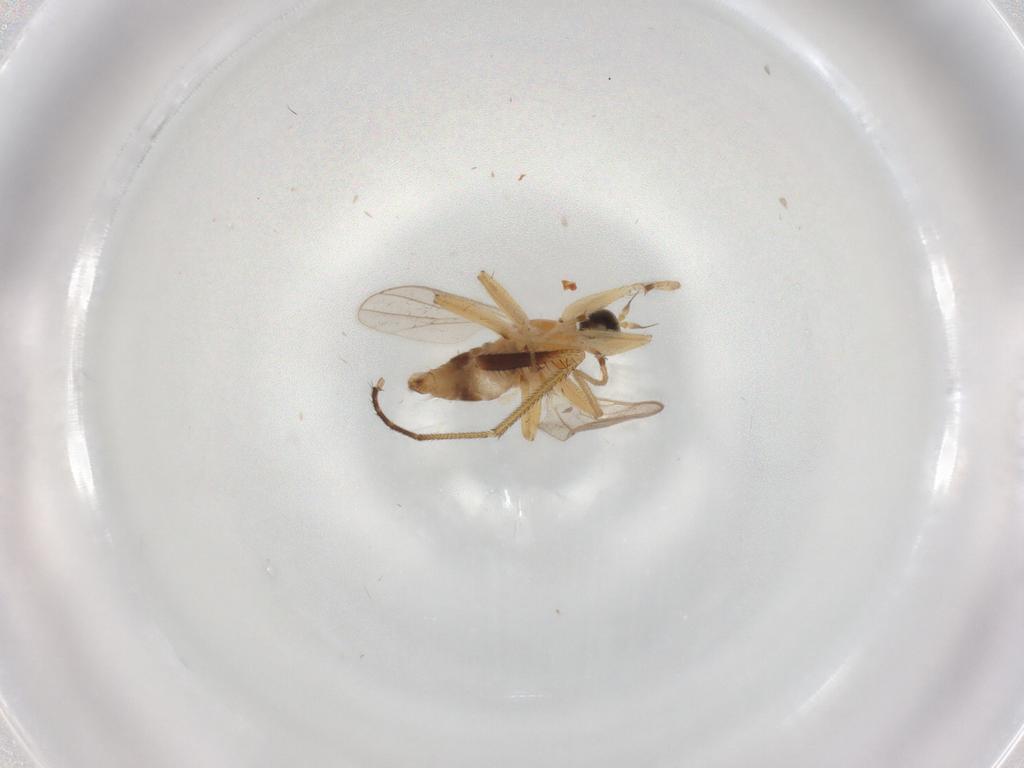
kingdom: Animalia
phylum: Arthropoda
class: Insecta
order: Diptera
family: Hybotidae
